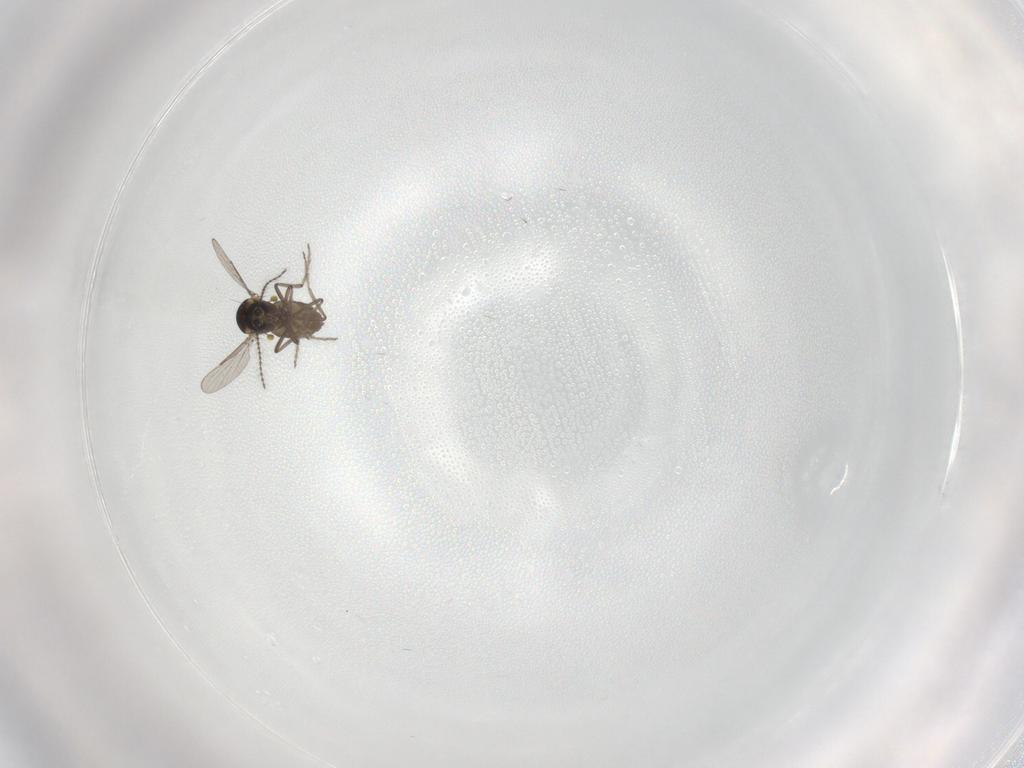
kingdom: Animalia
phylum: Arthropoda
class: Insecta
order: Diptera
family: Ceratopogonidae
